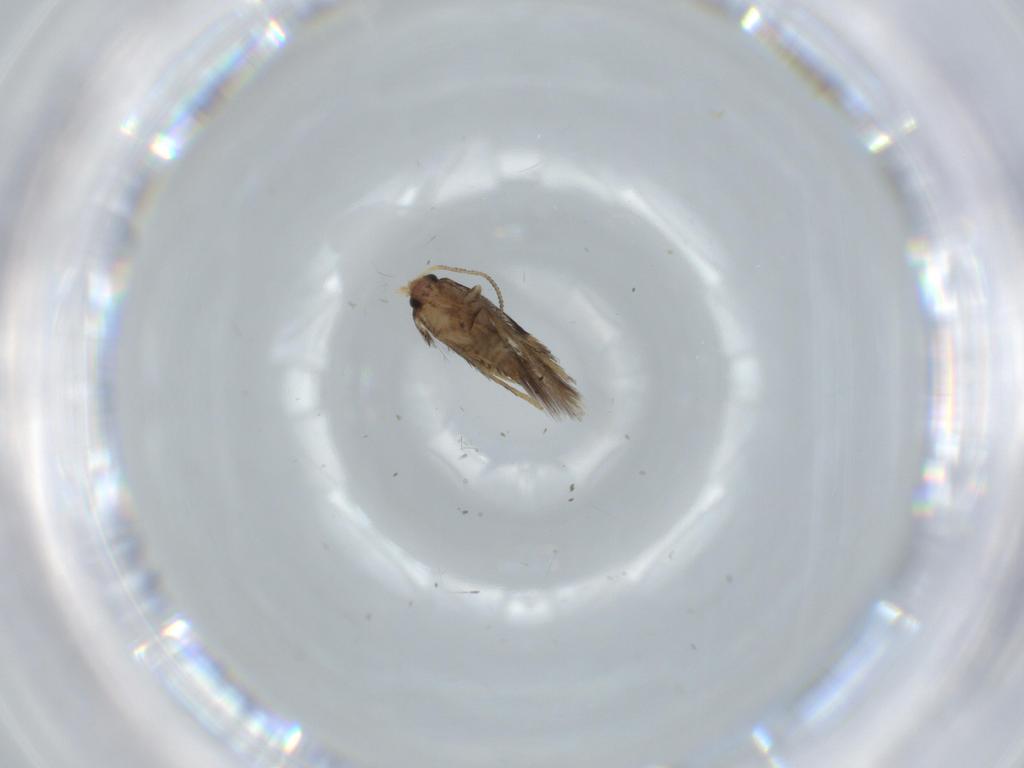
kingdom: Animalia
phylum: Arthropoda
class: Insecta
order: Lepidoptera
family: Nepticulidae
